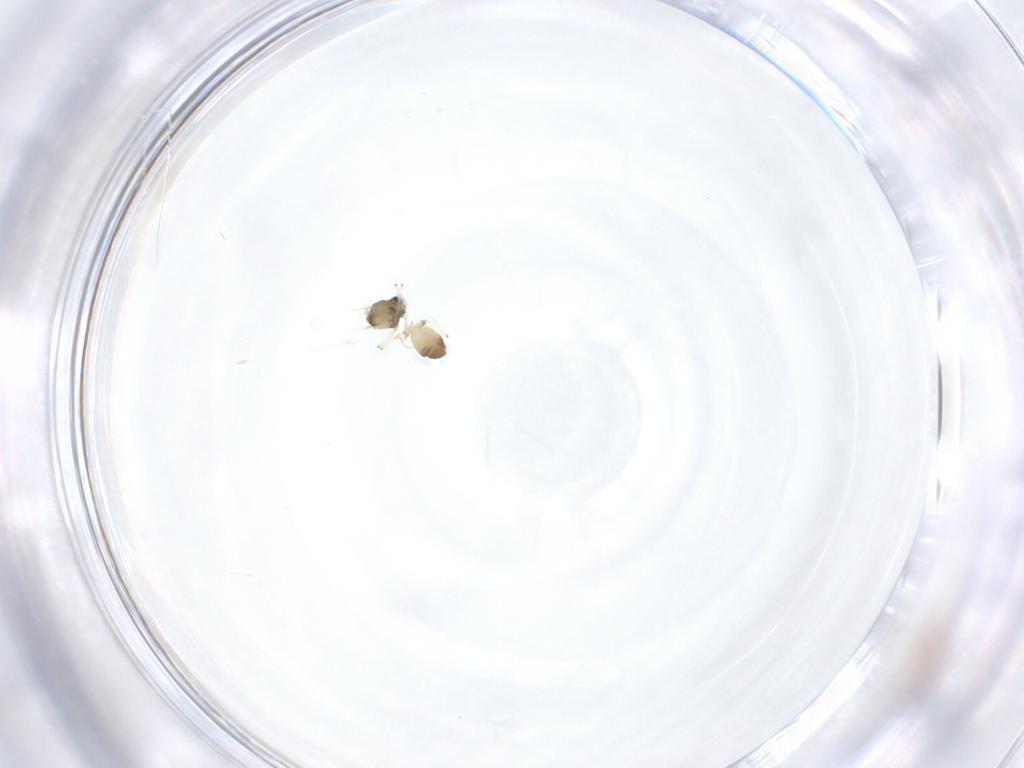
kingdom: Animalia
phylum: Arthropoda
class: Insecta
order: Diptera
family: Chironomidae
